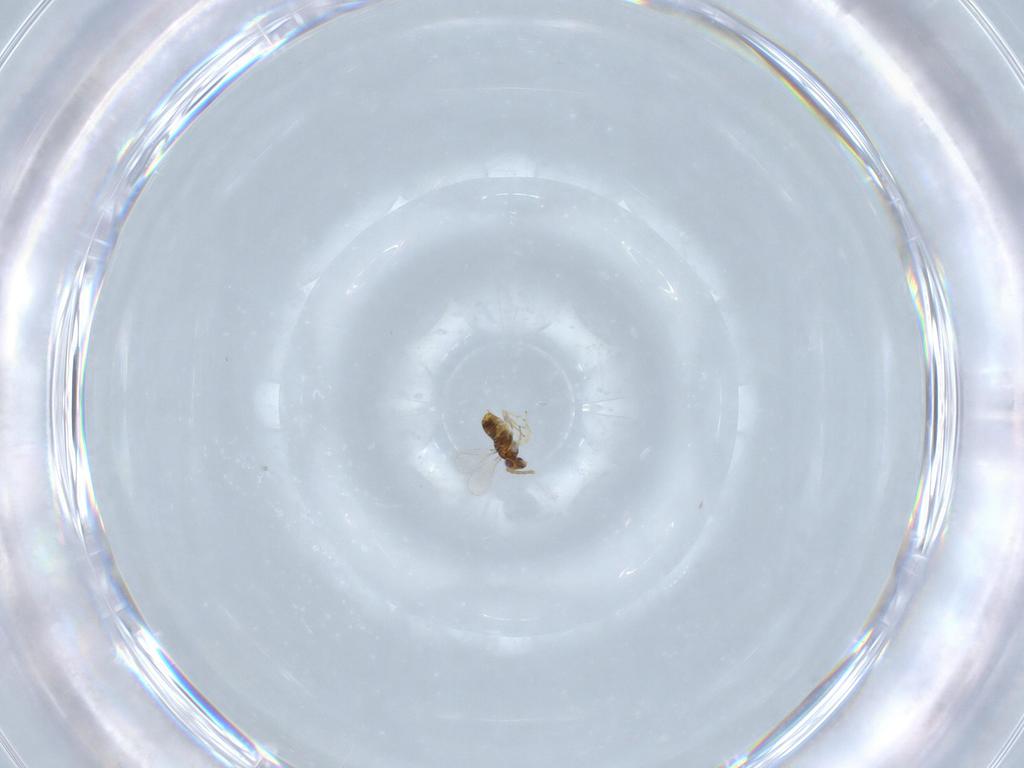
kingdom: Animalia
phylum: Arthropoda
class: Insecta
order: Hymenoptera
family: Aphelinidae
